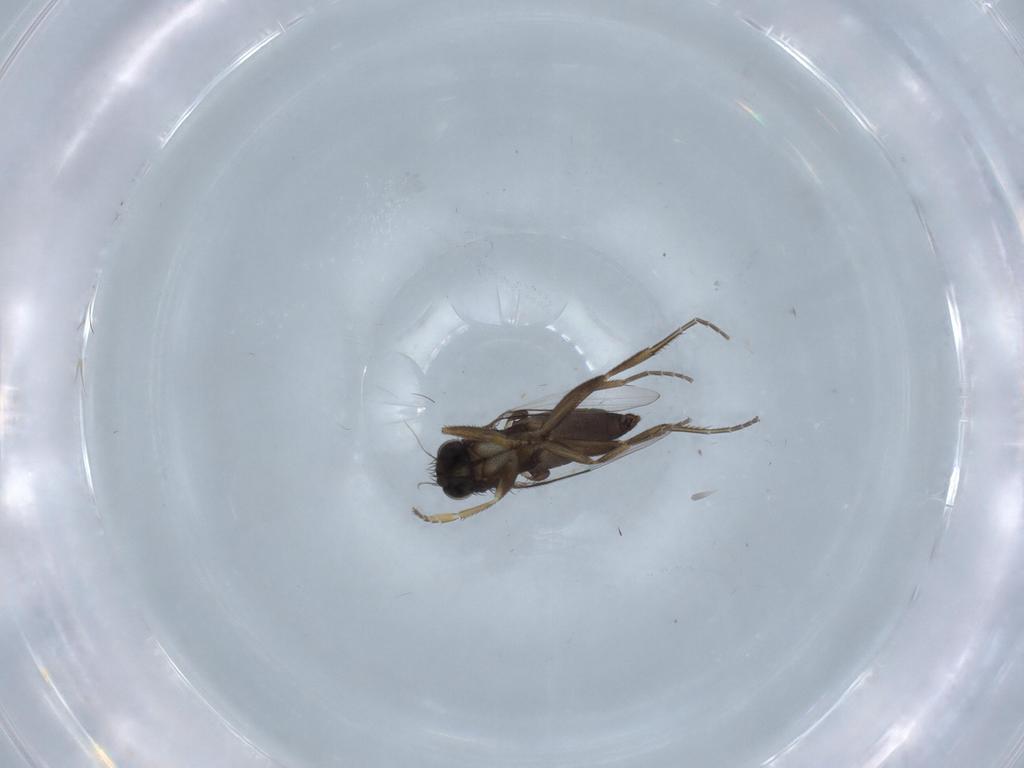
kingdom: Animalia
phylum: Arthropoda
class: Insecta
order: Diptera
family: Phoridae
